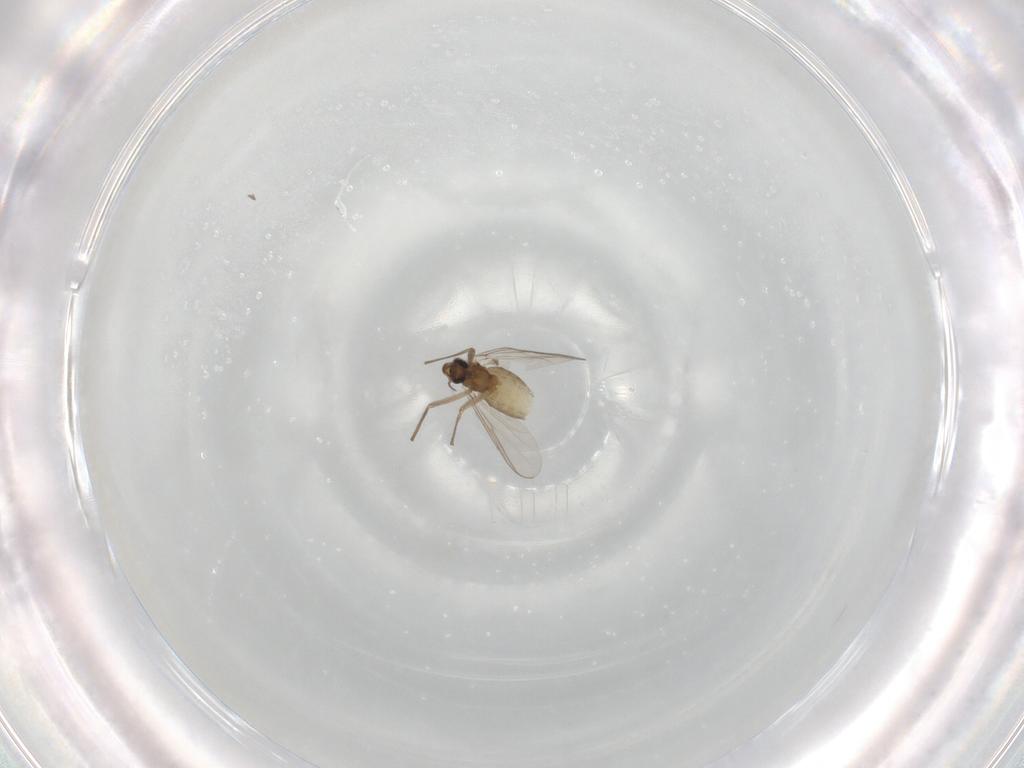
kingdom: Animalia
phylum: Arthropoda
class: Insecta
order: Diptera
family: Chironomidae
